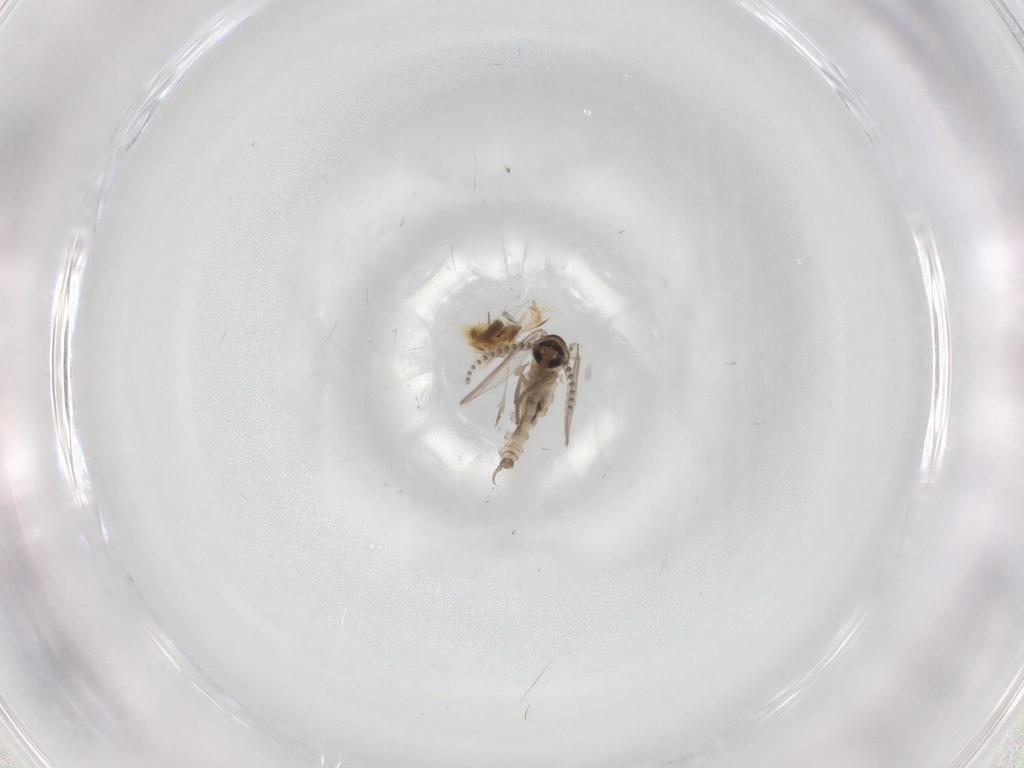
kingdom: Animalia
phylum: Arthropoda
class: Insecta
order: Diptera
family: Psychodidae
